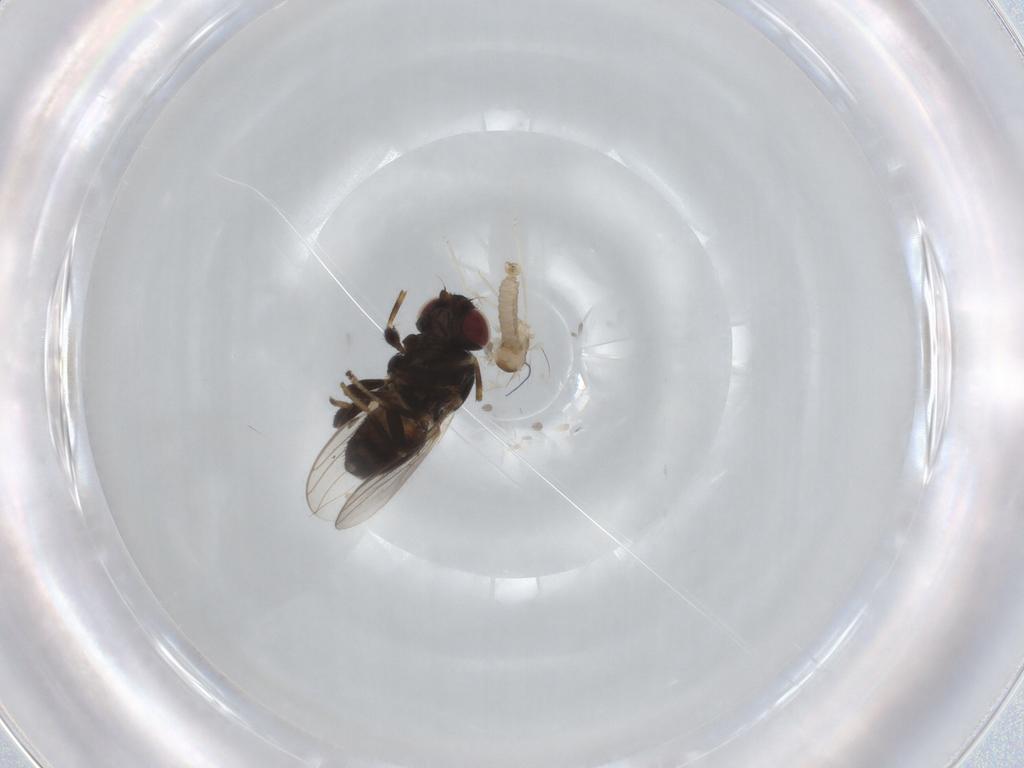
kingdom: Animalia
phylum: Arthropoda
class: Insecta
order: Diptera
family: Chloropidae
